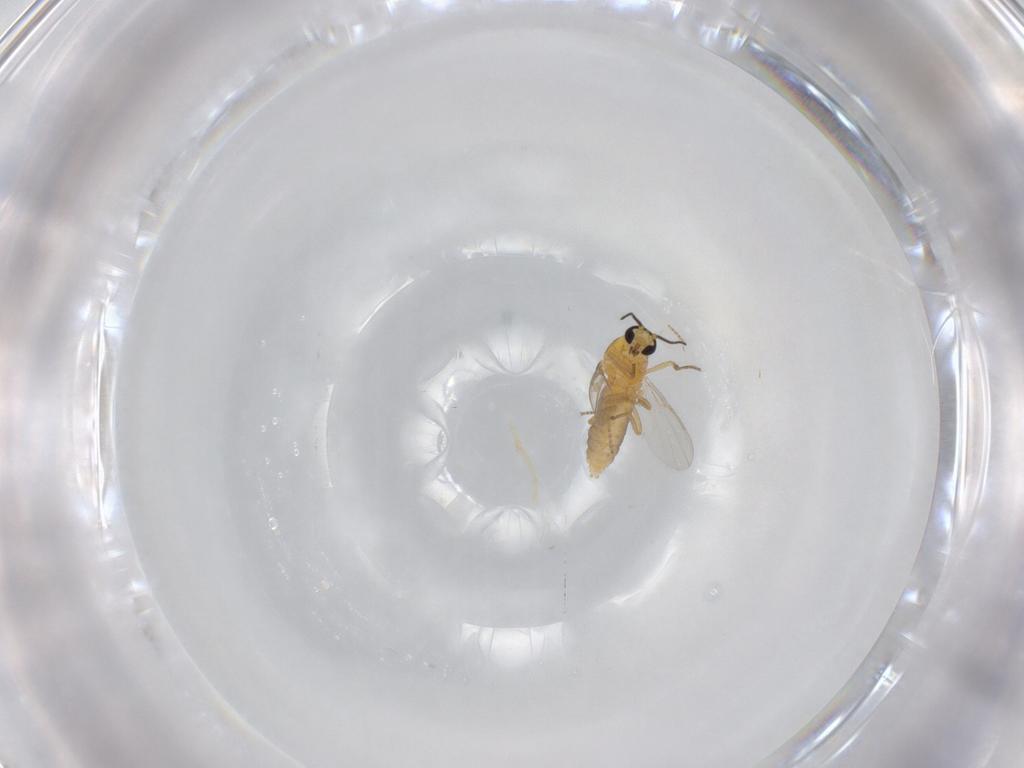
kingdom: Animalia
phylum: Arthropoda
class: Insecta
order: Diptera
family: Ceratopogonidae
